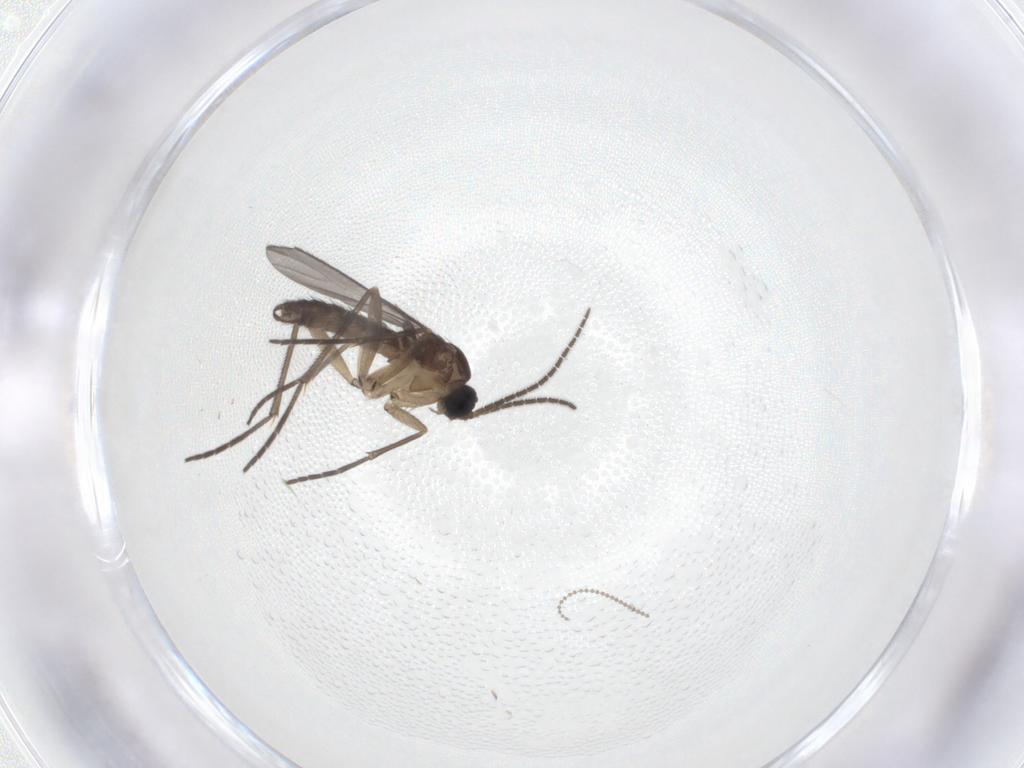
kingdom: Animalia
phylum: Arthropoda
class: Insecta
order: Diptera
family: Sciaridae
